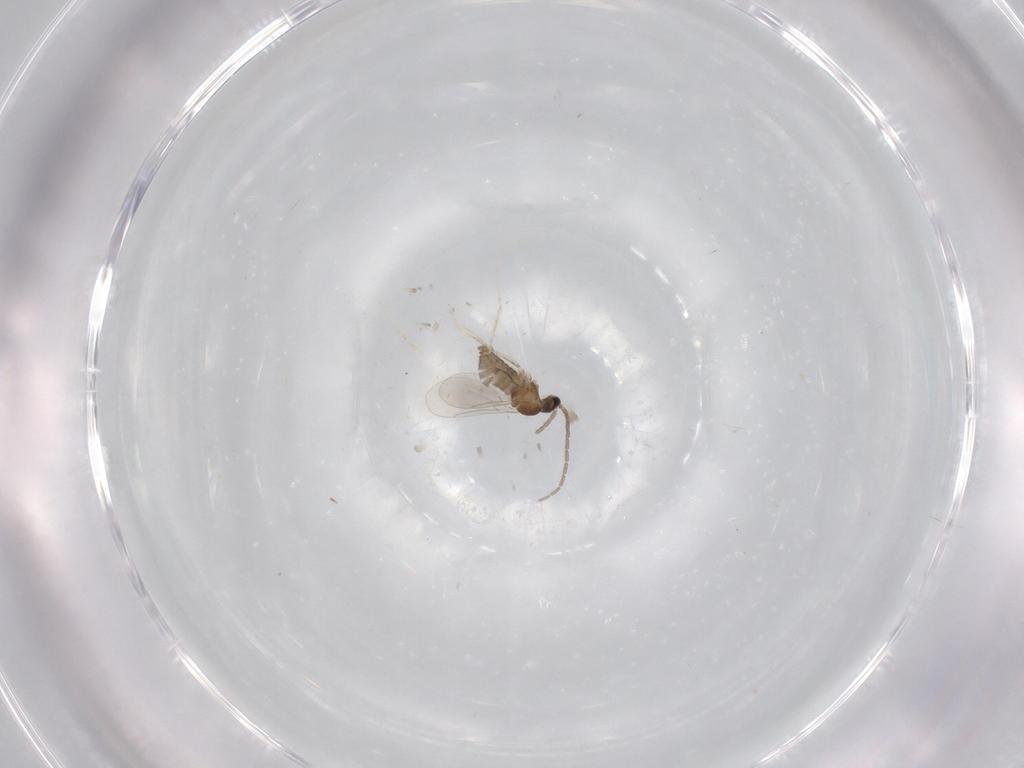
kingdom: Animalia
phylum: Arthropoda
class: Insecta
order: Diptera
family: Cecidomyiidae
